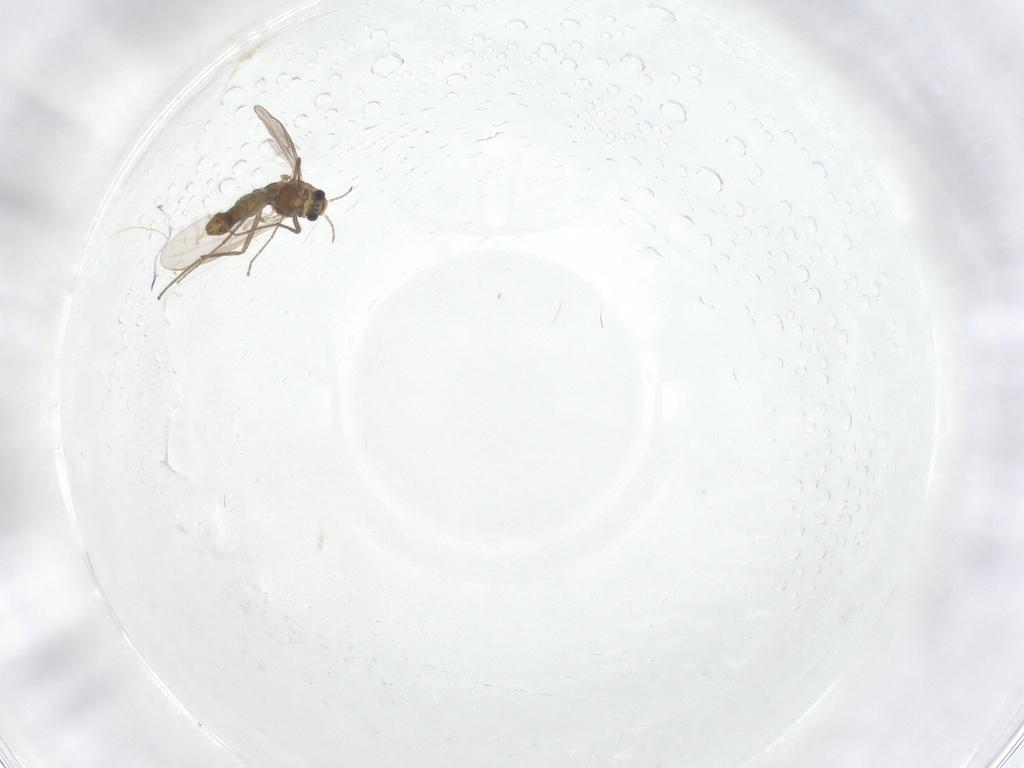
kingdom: Animalia
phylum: Arthropoda
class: Insecta
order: Diptera
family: Chironomidae
